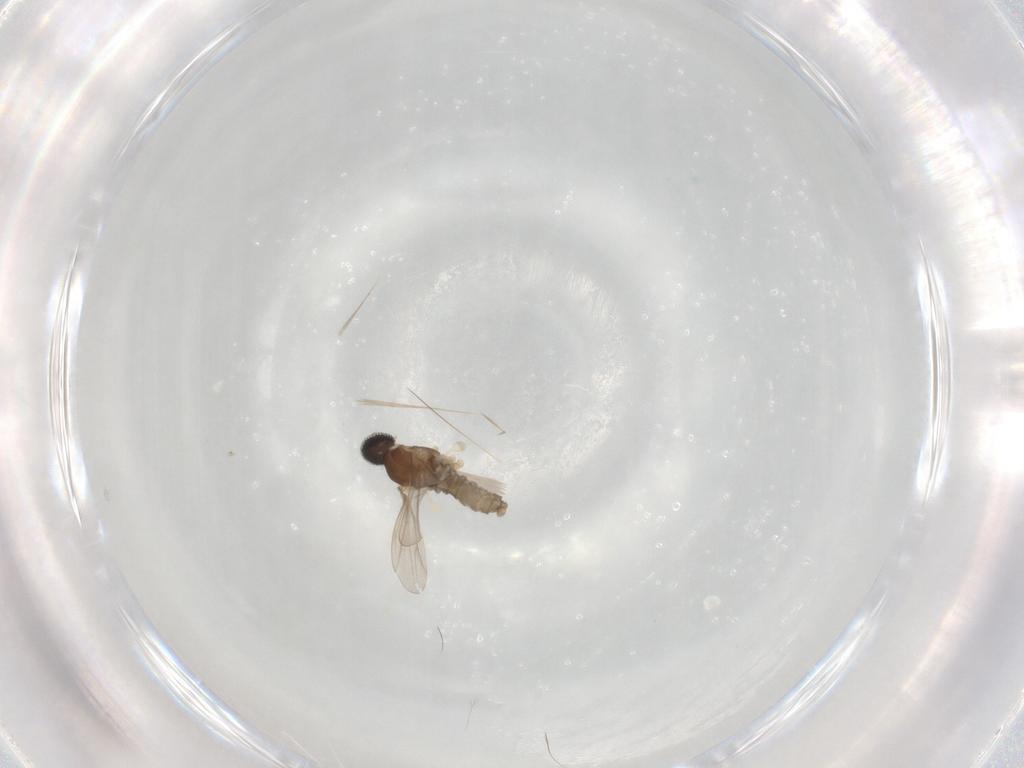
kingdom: Animalia
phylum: Arthropoda
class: Insecta
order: Diptera
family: Cecidomyiidae
